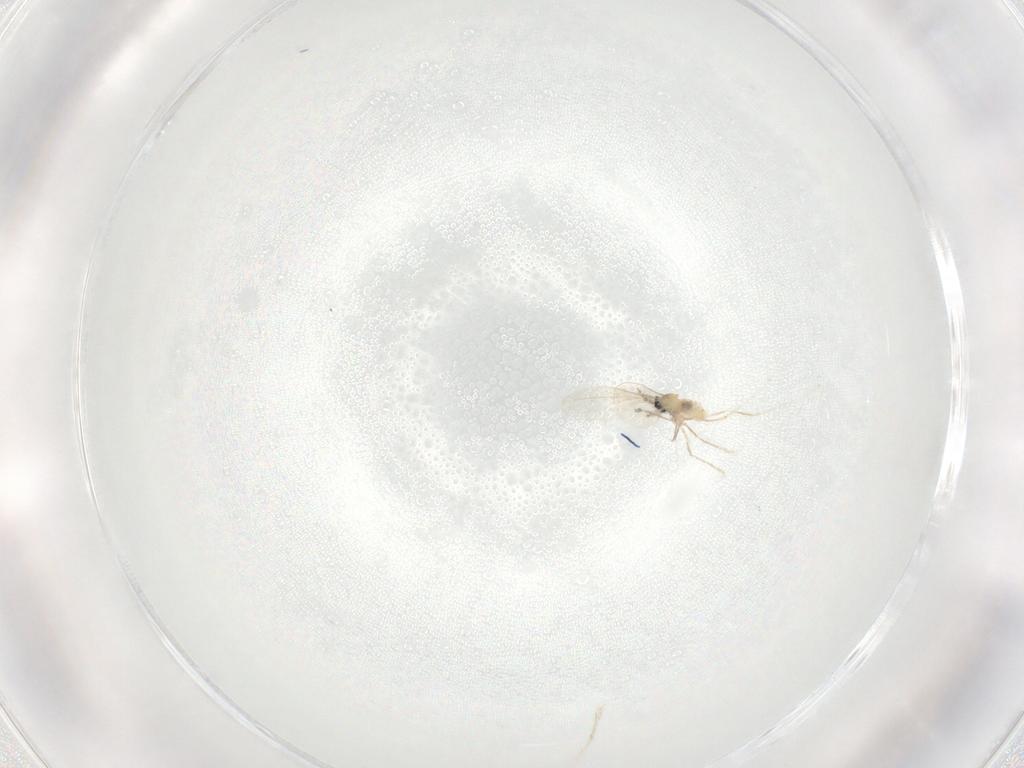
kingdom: Animalia
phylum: Arthropoda
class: Insecta
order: Diptera
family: Cecidomyiidae
